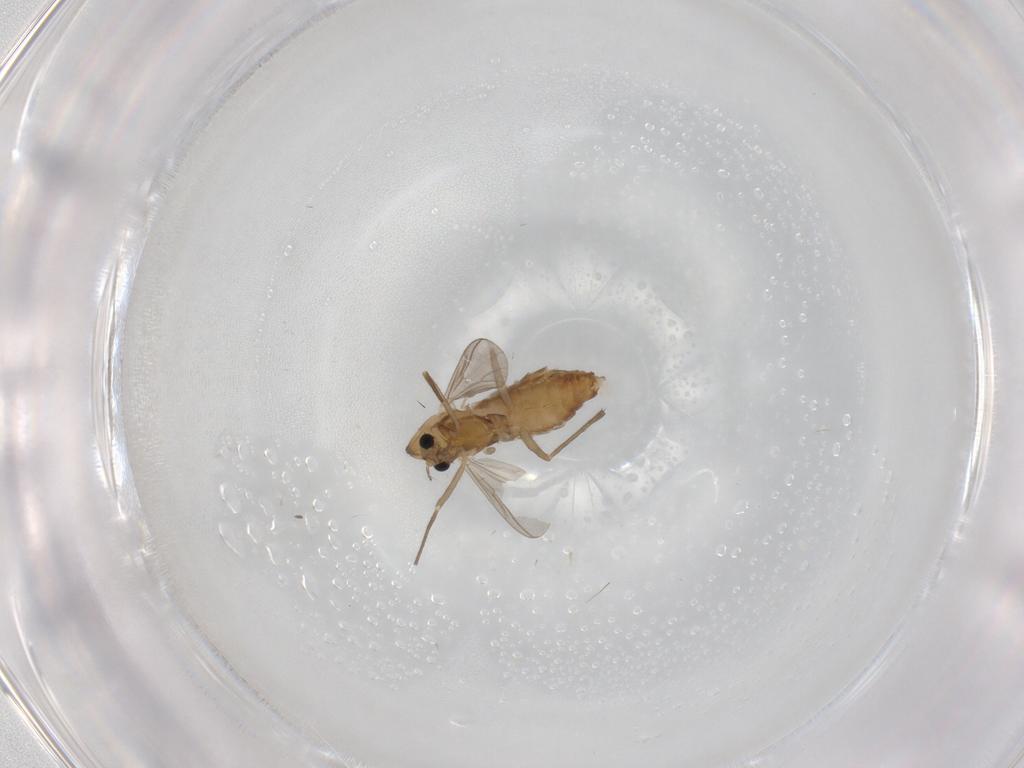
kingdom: Animalia
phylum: Arthropoda
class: Insecta
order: Diptera
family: Chironomidae
